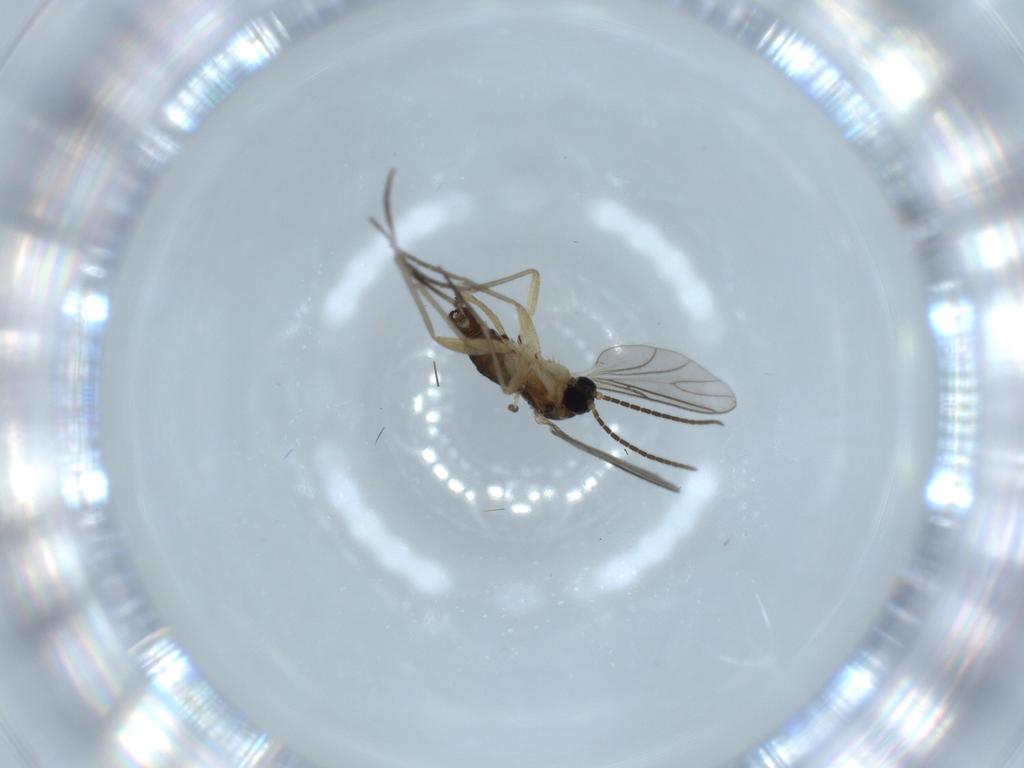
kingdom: Animalia
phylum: Arthropoda
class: Insecta
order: Diptera
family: Sciaridae
